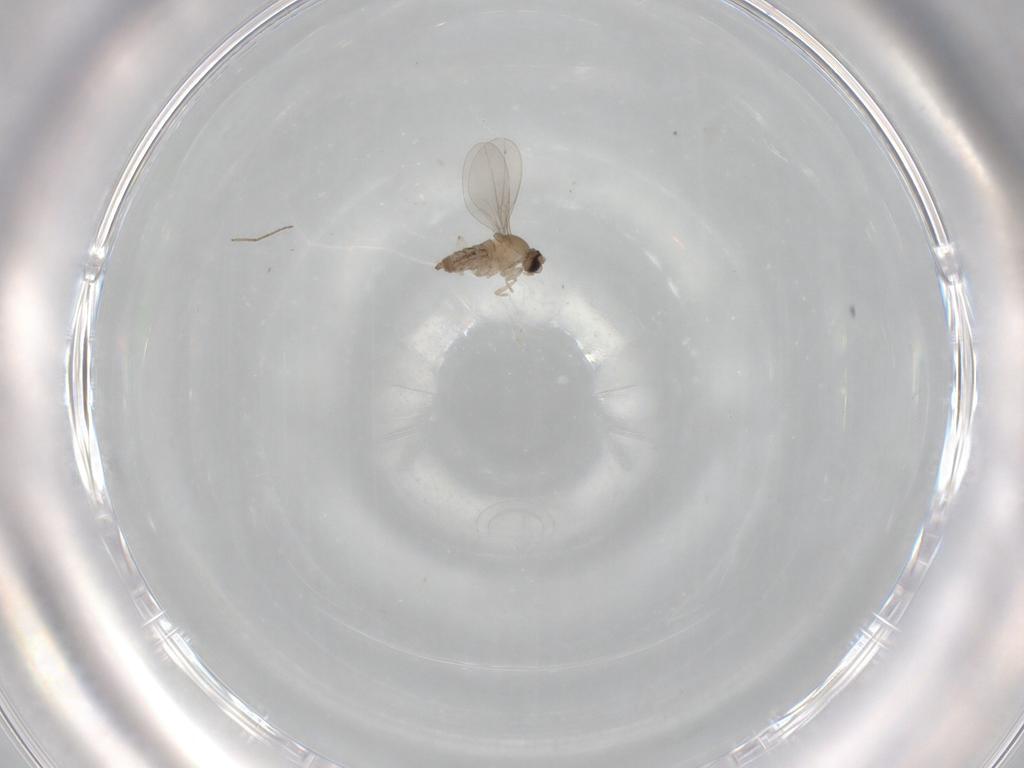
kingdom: Animalia
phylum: Arthropoda
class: Insecta
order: Diptera
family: Cecidomyiidae
